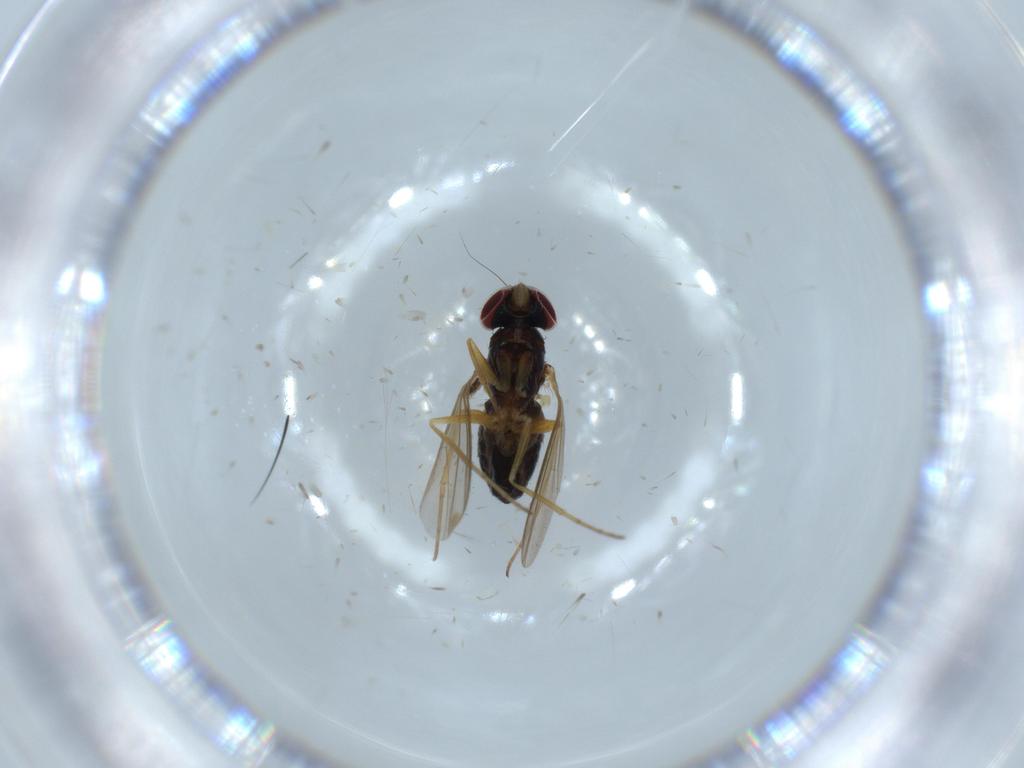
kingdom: Animalia
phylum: Arthropoda
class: Insecta
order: Diptera
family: Dolichopodidae
